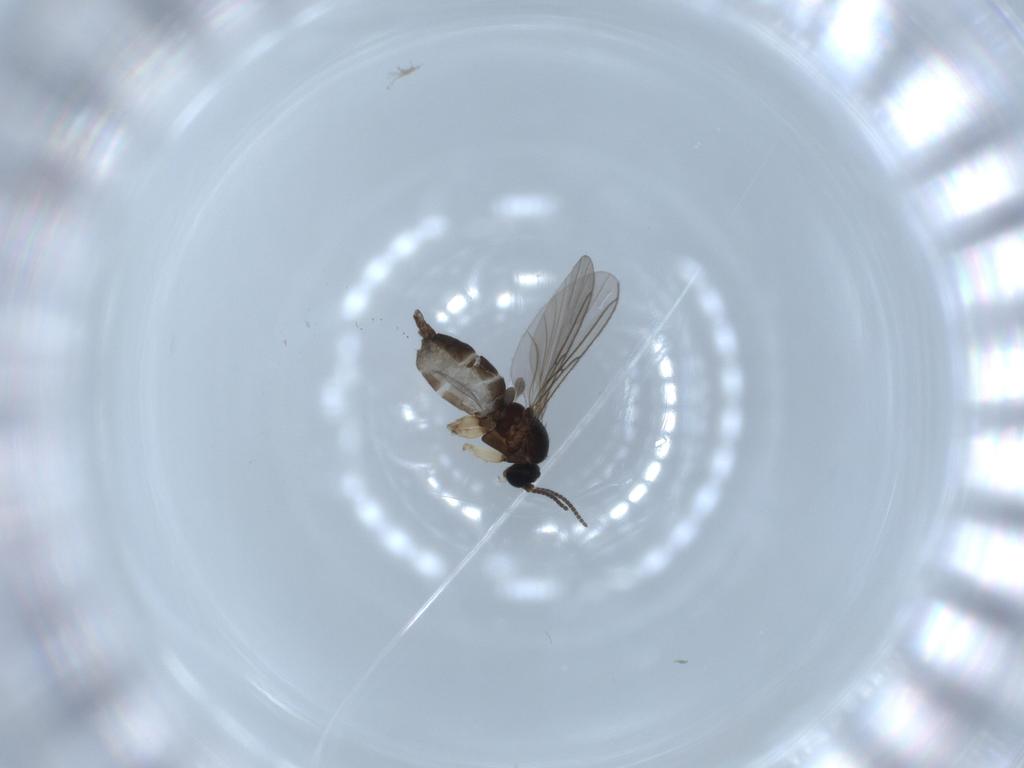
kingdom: Animalia
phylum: Arthropoda
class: Insecta
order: Diptera
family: Sciaridae
